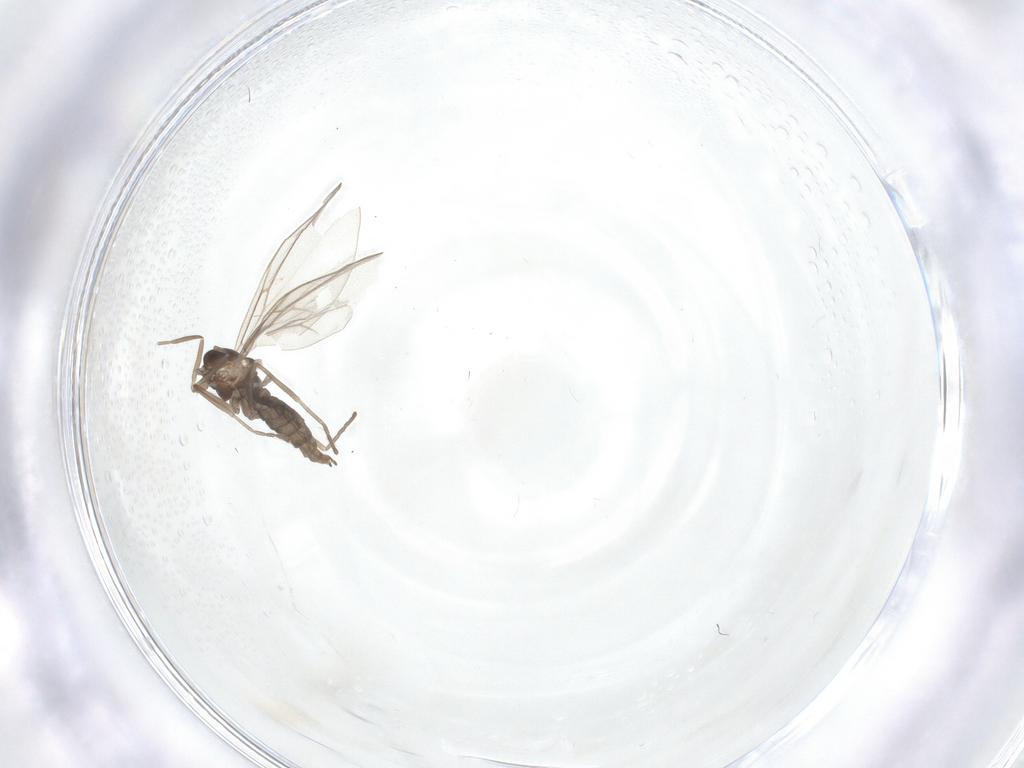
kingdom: Animalia
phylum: Arthropoda
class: Insecta
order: Diptera
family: Cecidomyiidae
